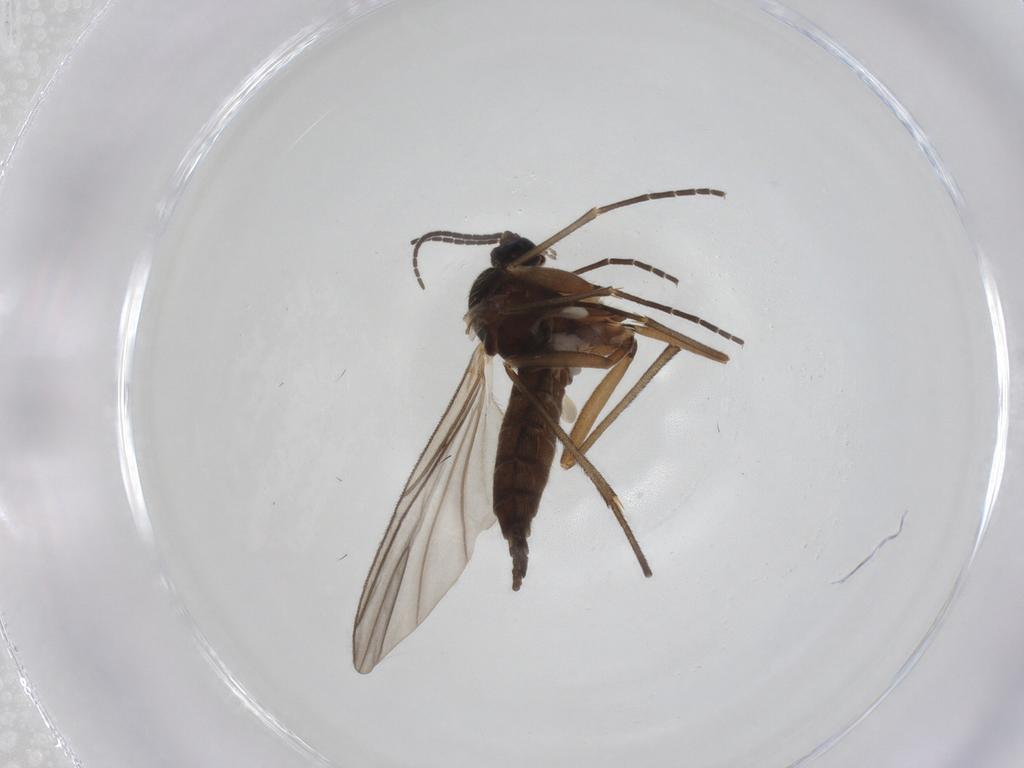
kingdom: Animalia
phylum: Arthropoda
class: Insecta
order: Diptera
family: Sciaridae
